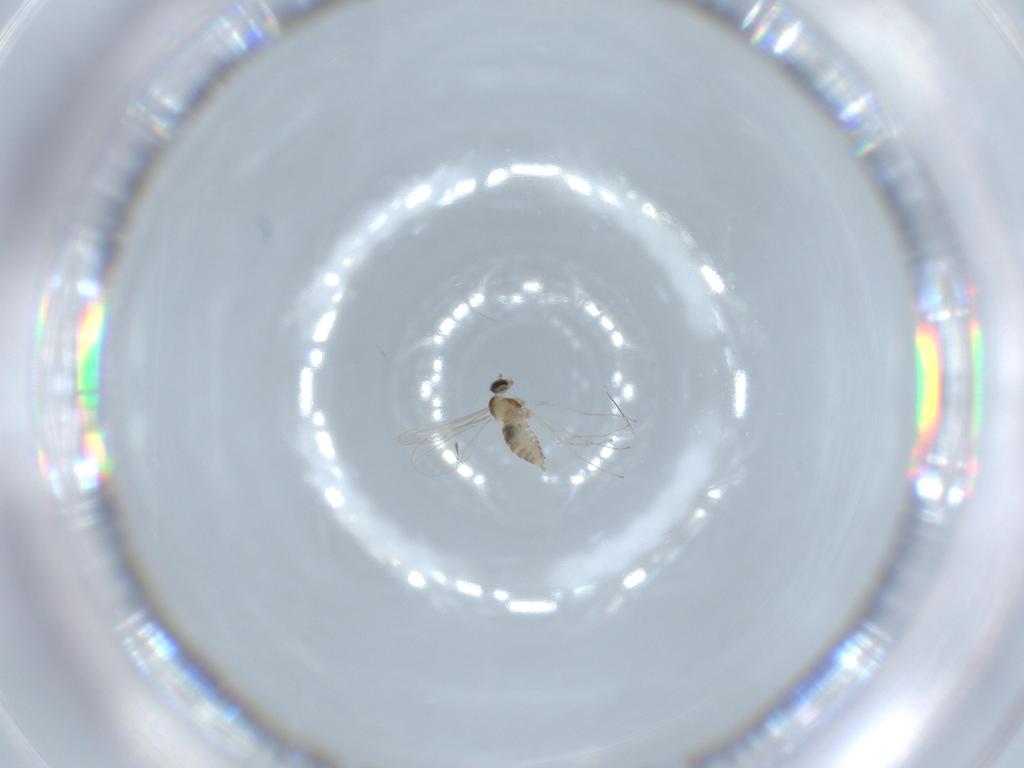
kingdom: Animalia
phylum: Arthropoda
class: Insecta
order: Diptera
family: Cecidomyiidae
